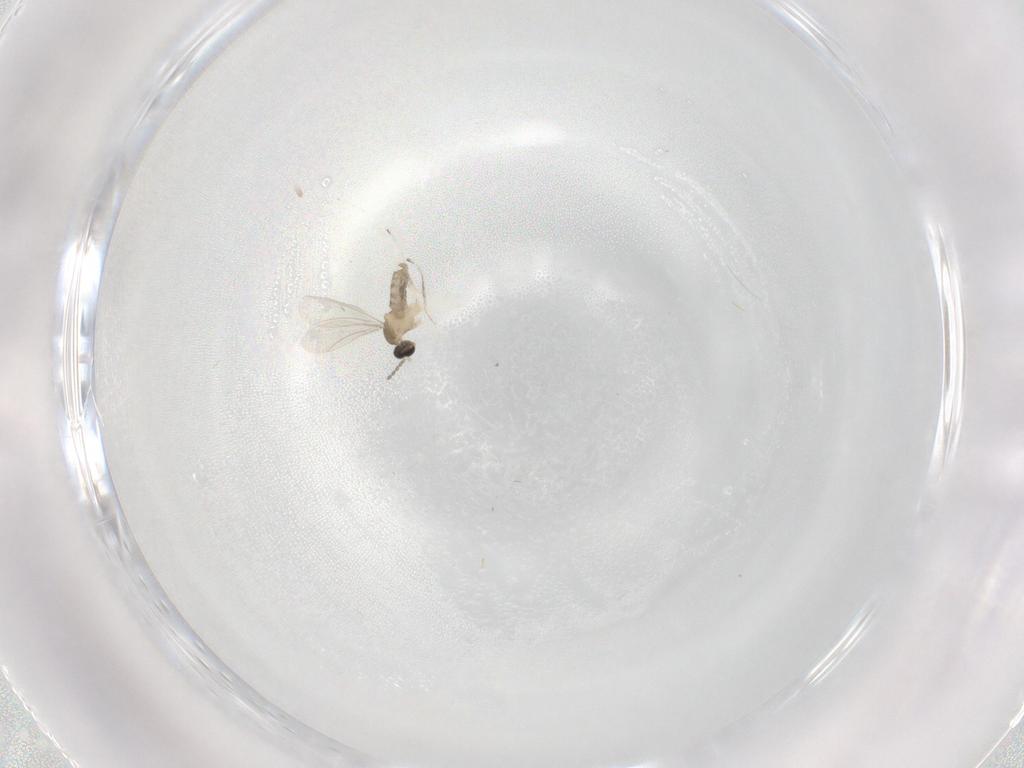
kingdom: Animalia
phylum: Arthropoda
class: Insecta
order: Diptera
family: Cecidomyiidae
